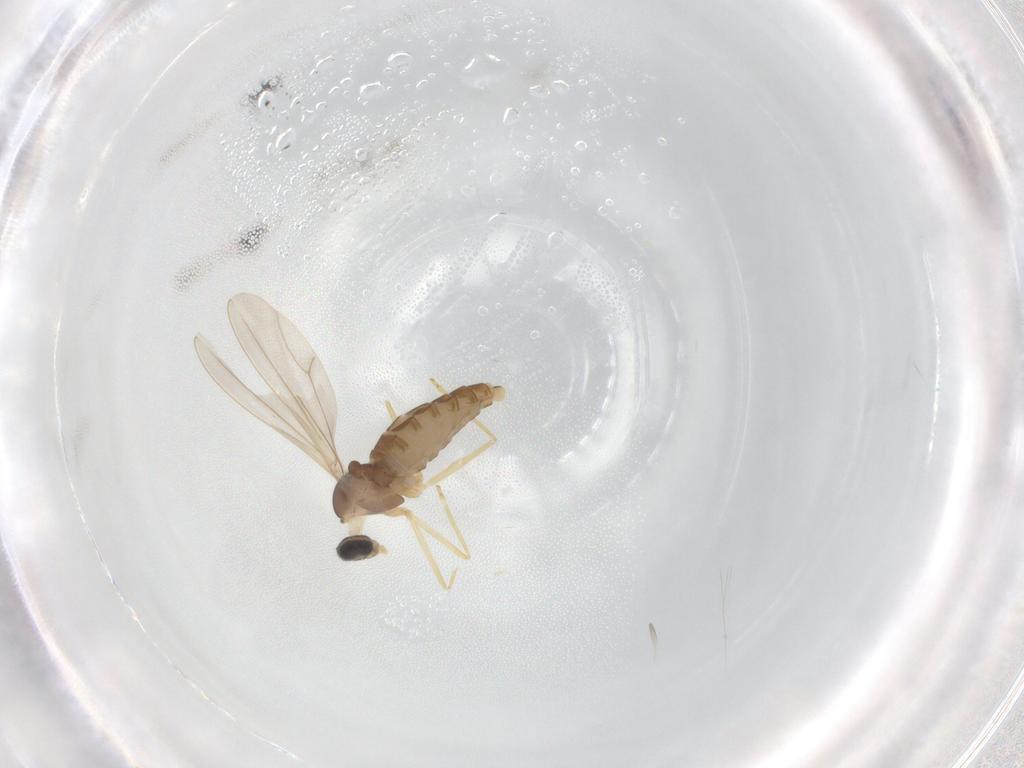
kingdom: Animalia
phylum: Arthropoda
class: Insecta
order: Diptera
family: Cecidomyiidae
